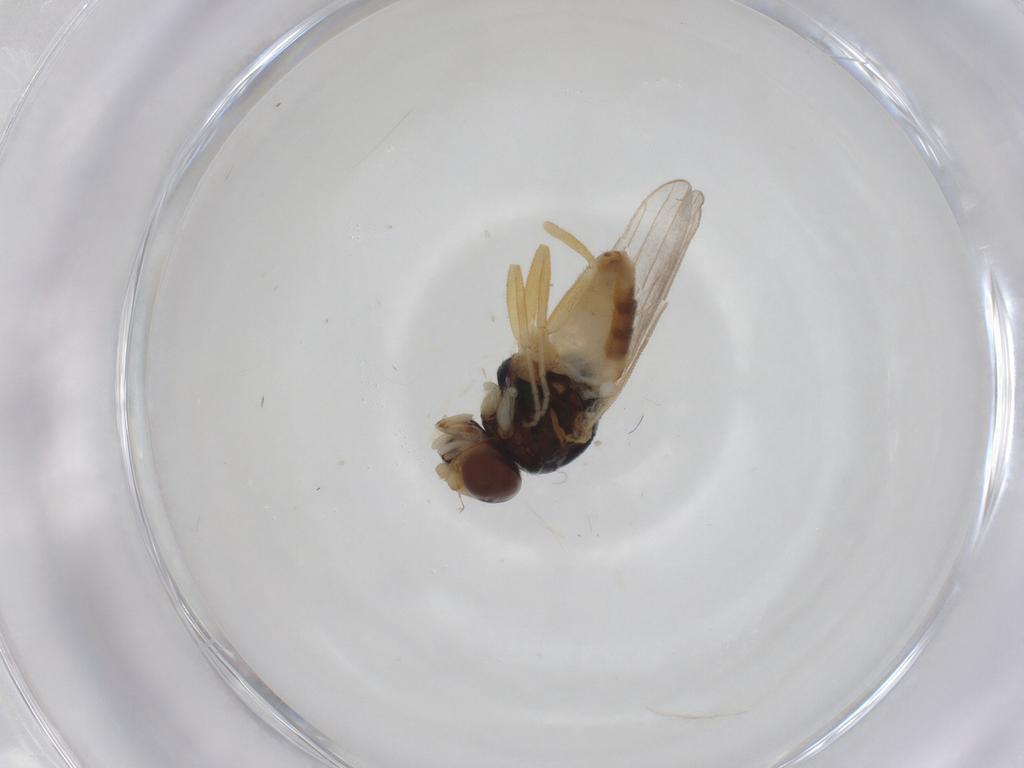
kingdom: Animalia
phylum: Arthropoda
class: Insecta
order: Diptera
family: Chloropidae
